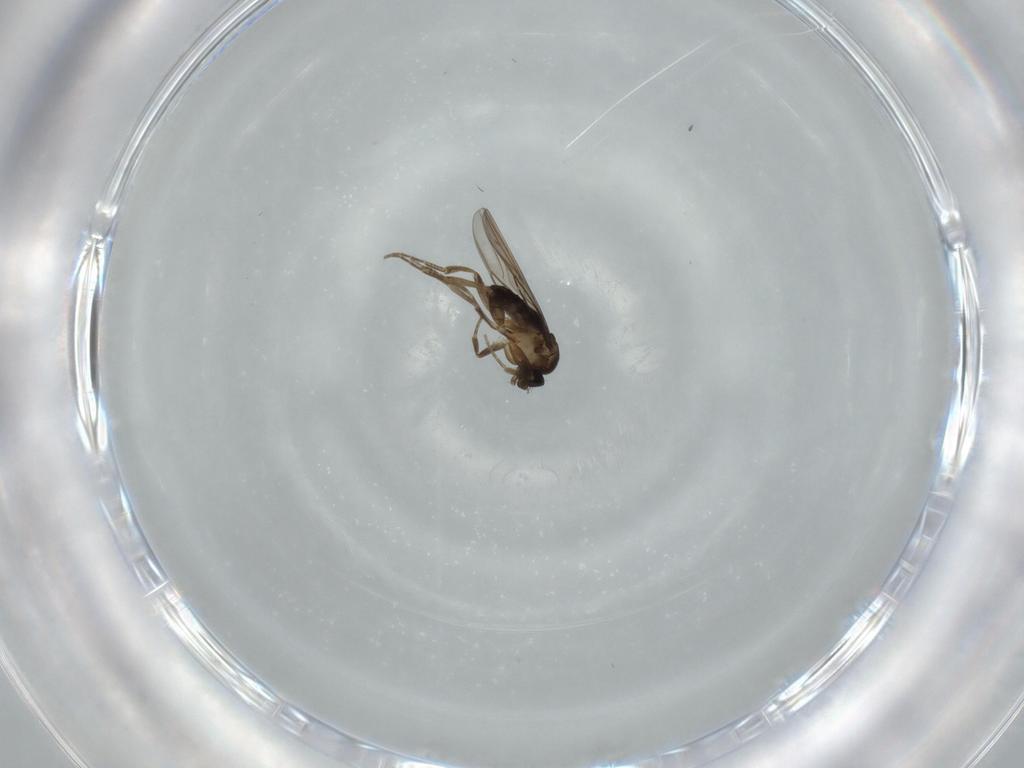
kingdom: Animalia
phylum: Arthropoda
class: Insecta
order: Diptera
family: Phoridae
